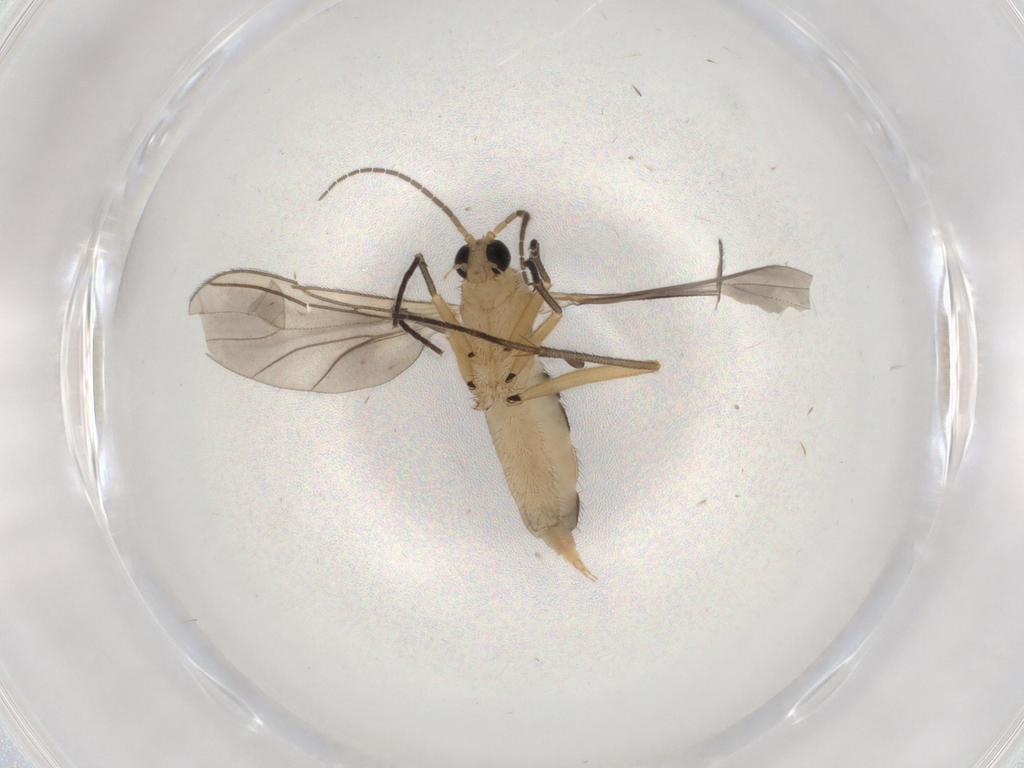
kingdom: Animalia
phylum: Arthropoda
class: Insecta
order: Diptera
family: Sciaridae
